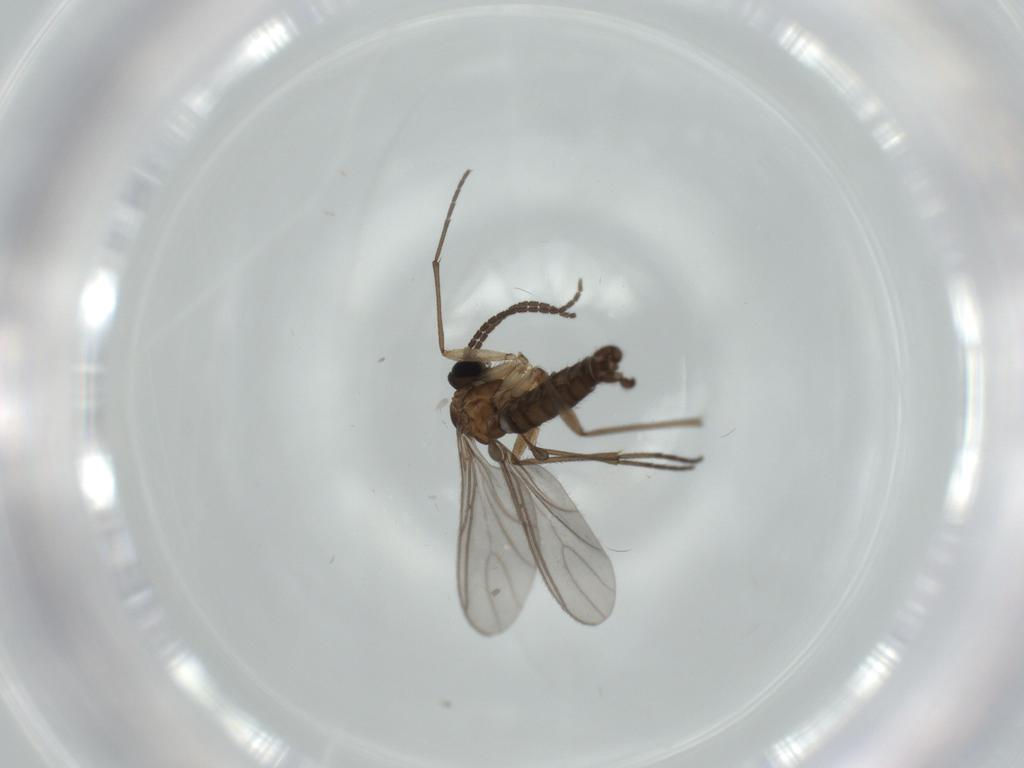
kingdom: Animalia
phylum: Arthropoda
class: Insecta
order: Diptera
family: Sciaridae
